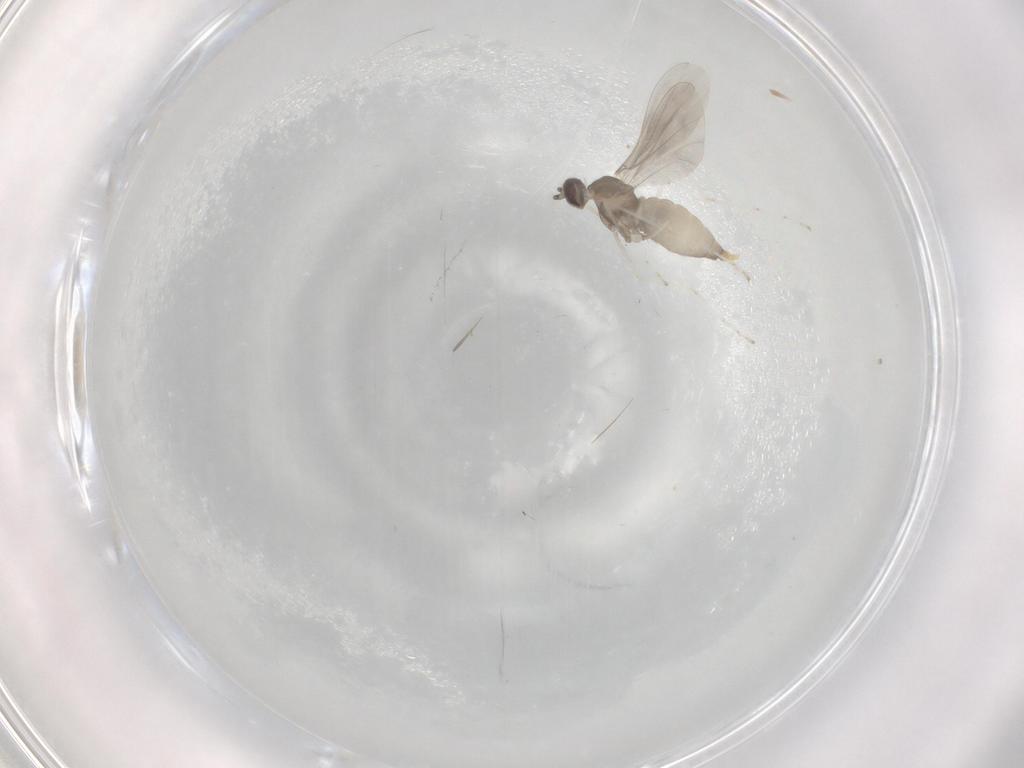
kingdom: Animalia
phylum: Arthropoda
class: Insecta
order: Diptera
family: Cecidomyiidae
